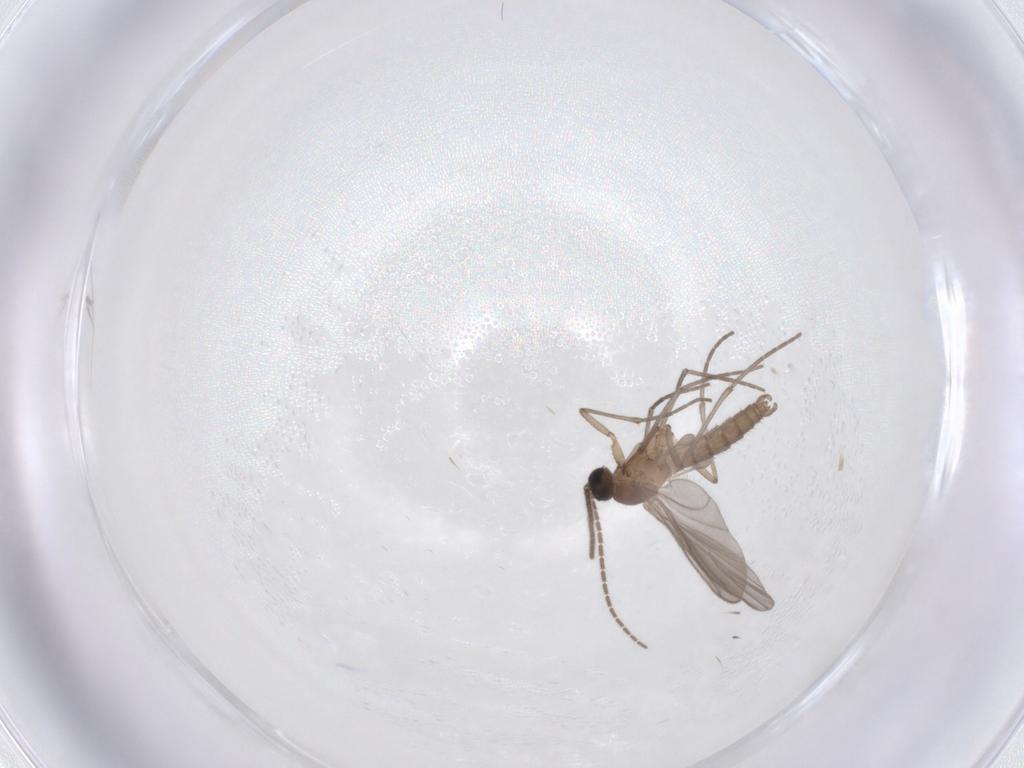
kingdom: Animalia
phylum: Arthropoda
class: Insecta
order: Diptera
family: Sciaridae
